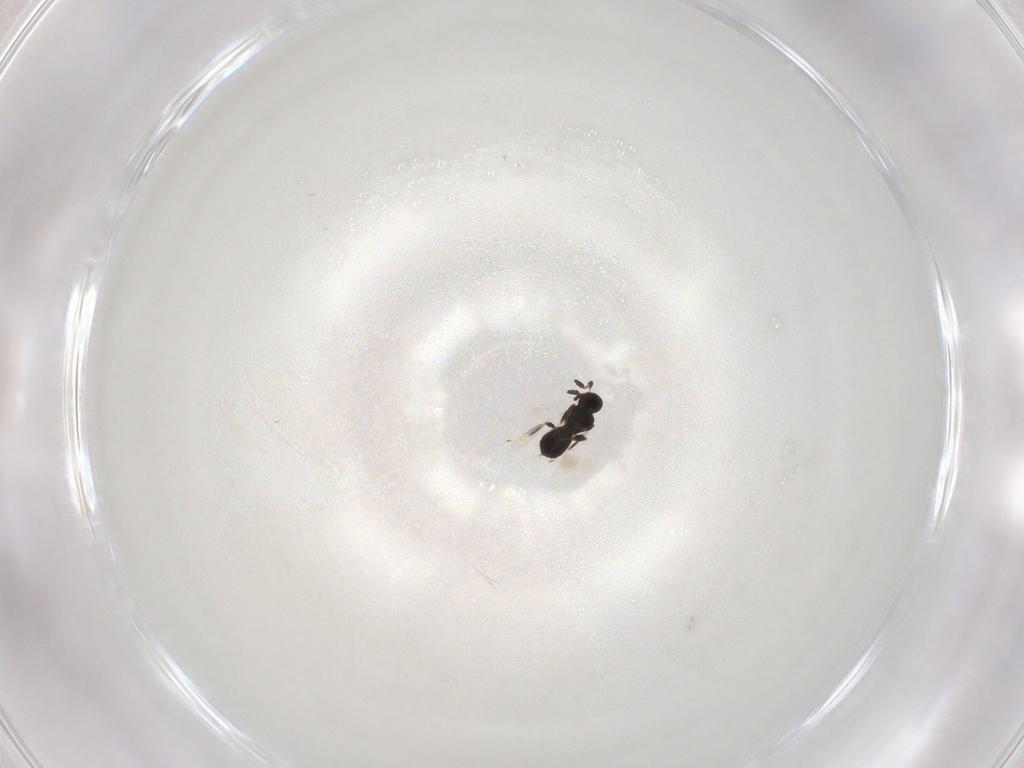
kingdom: Animalia
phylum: Arthropoda
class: Insecta
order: Hymenoptera
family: Platygastridae
